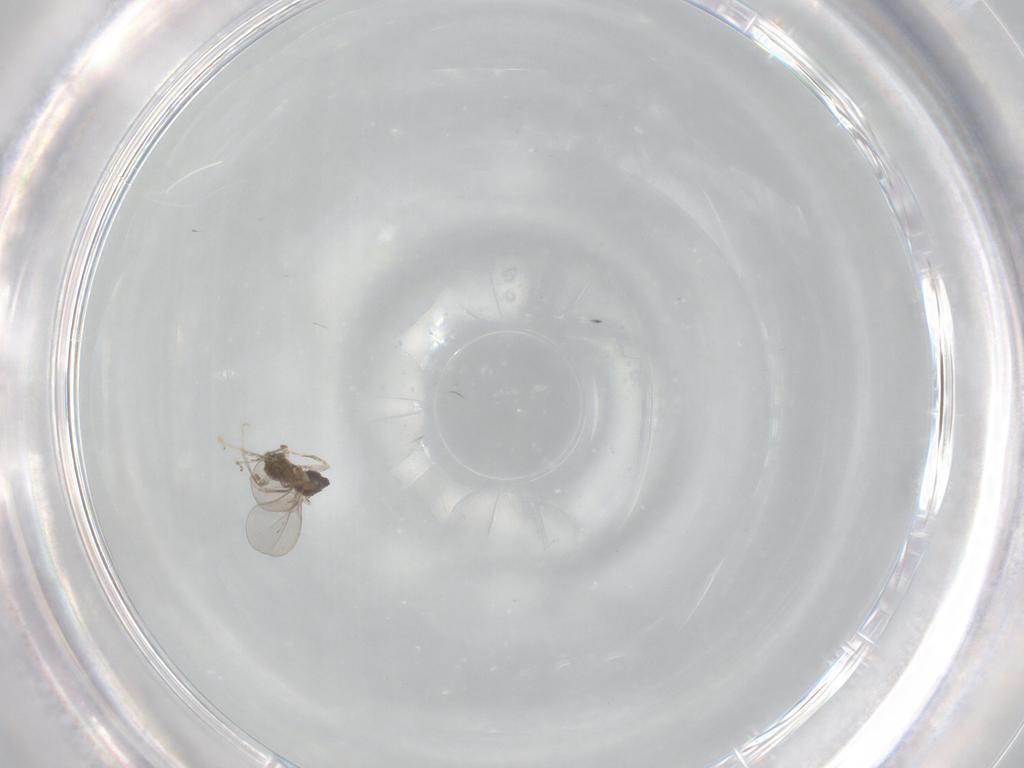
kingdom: Animalia
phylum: Arthropoda
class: Insecta
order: Diptera
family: Cecidomyiidae
